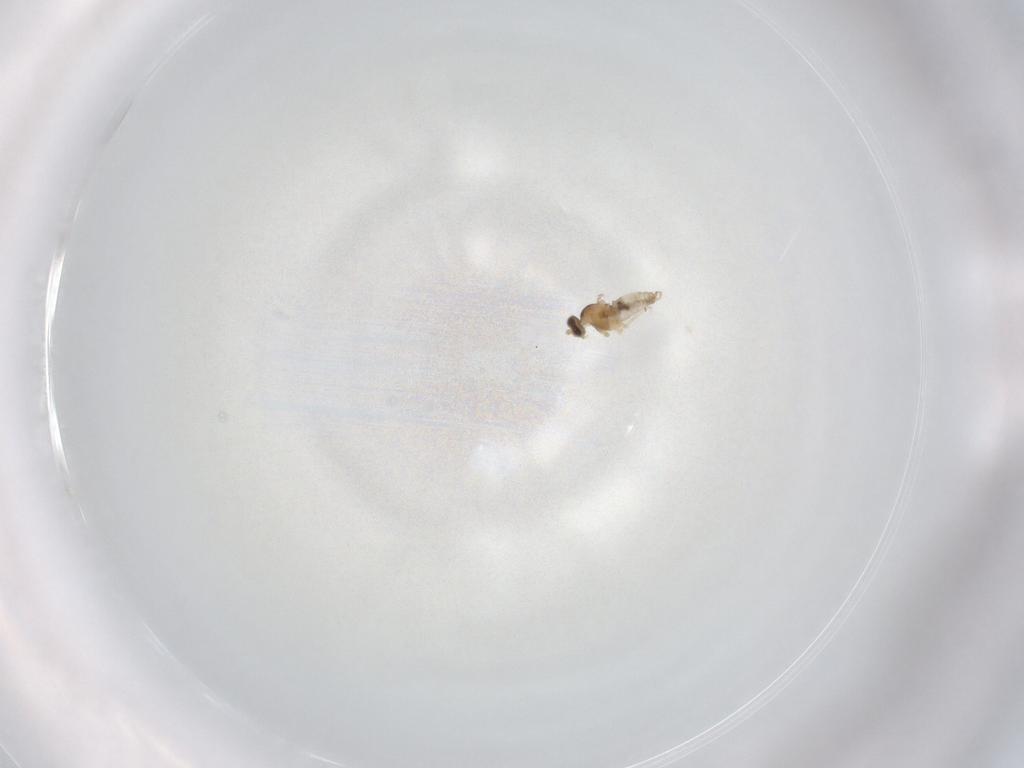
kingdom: Animalia
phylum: Arthropoda
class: Insecta
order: Diptera
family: Cecidomyiidae
